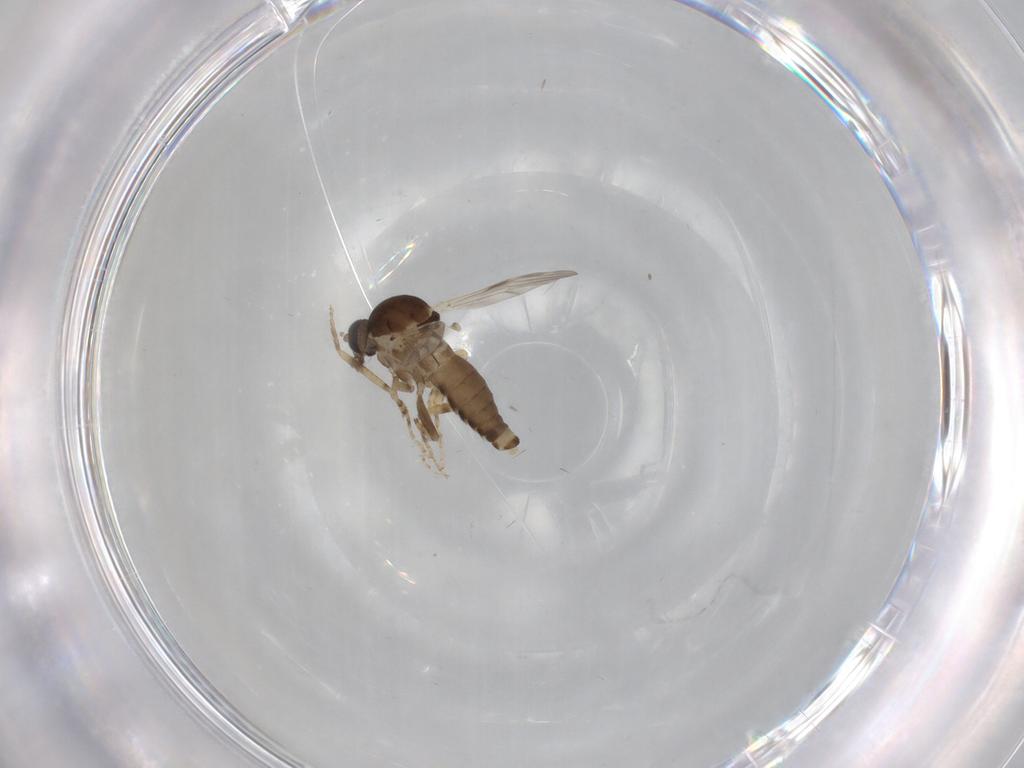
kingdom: Animalia
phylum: Arthropoda
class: Insecta
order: Diptera
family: Ceratopogonidae
